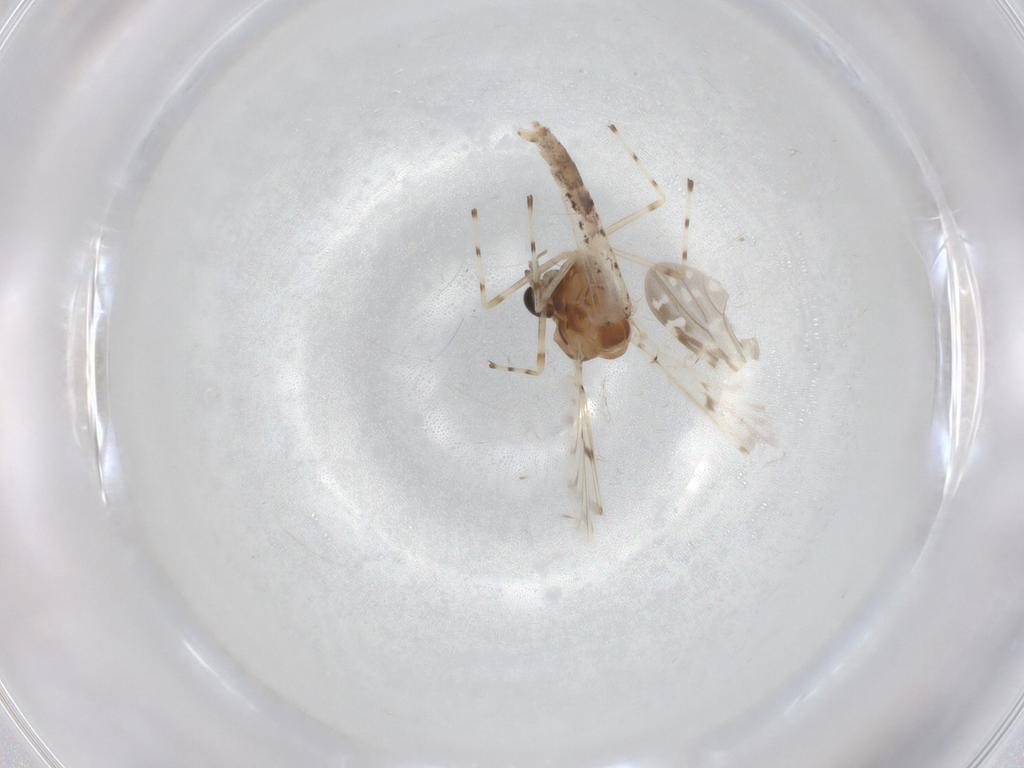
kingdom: Animalia
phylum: Arthropoda
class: Insecta
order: Diptera
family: Chironomidae
